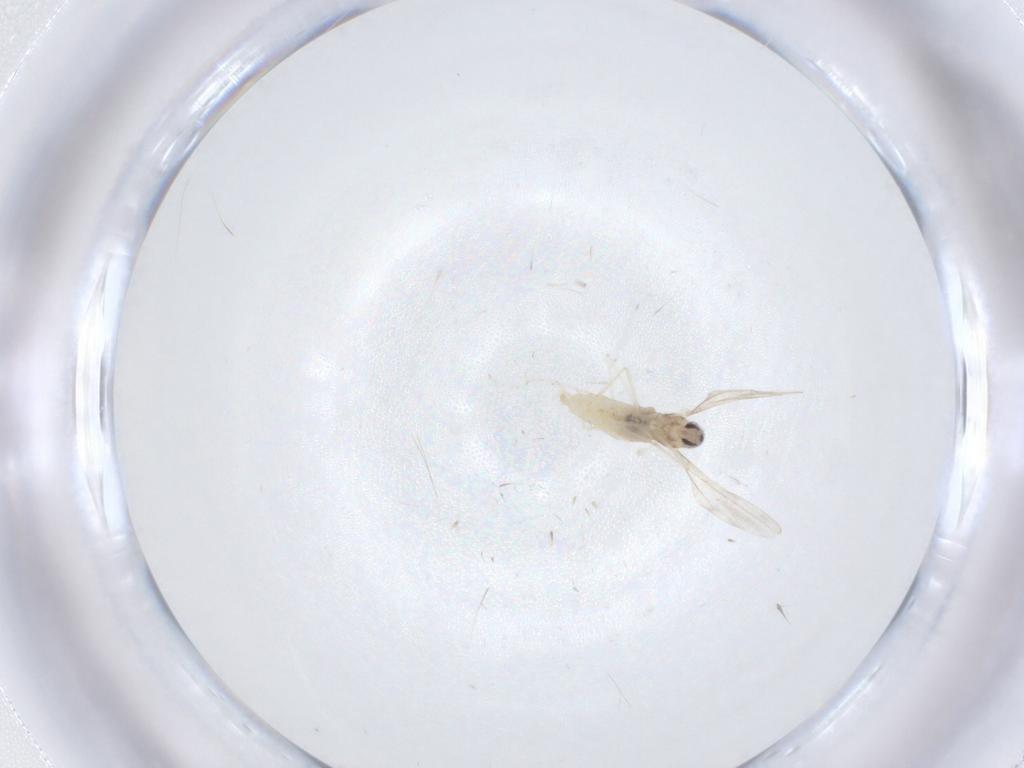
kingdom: Animalia
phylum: Arthropoda
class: Insecta
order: Diptera
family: Cecidomyiidae
